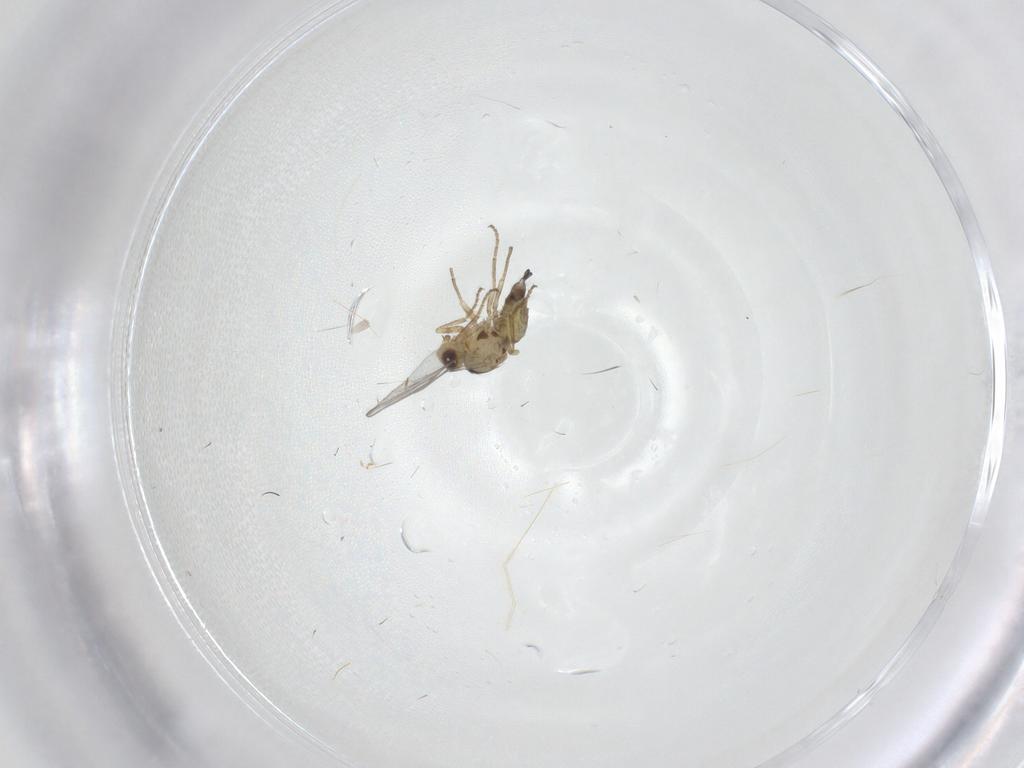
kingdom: Animalia
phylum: Arthropoda
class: Insecta
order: Diptera
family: Agromyzidae
